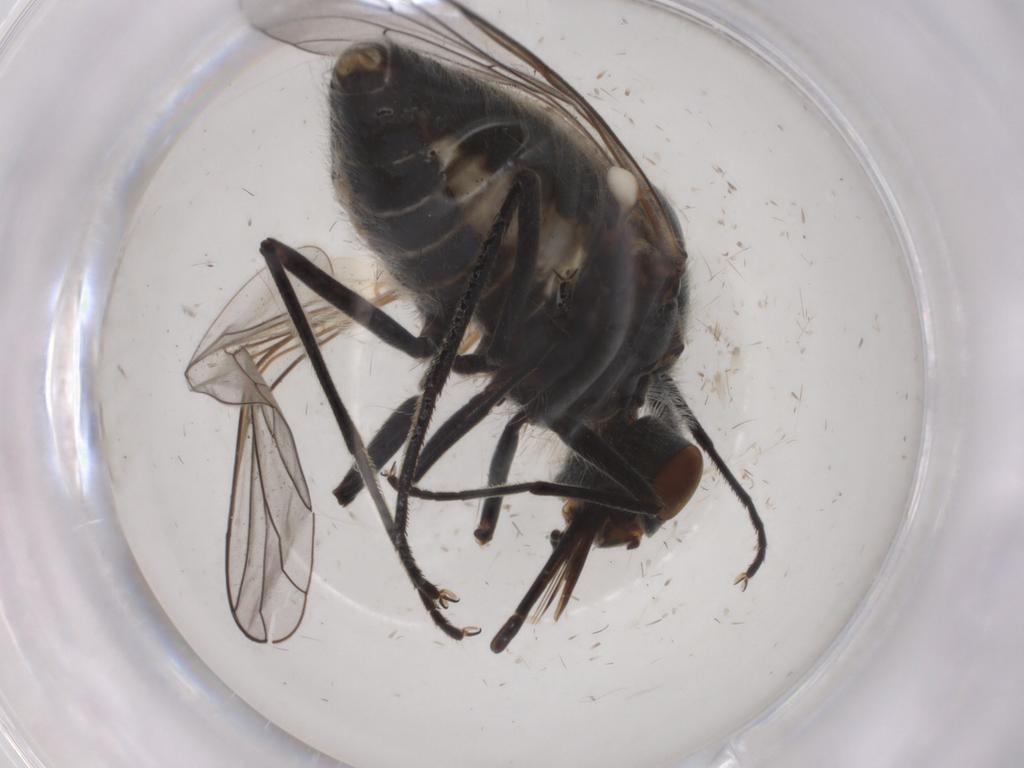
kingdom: Animalia
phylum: Arthropoda
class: Insecta
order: Diptera
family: Stratiomyidae
